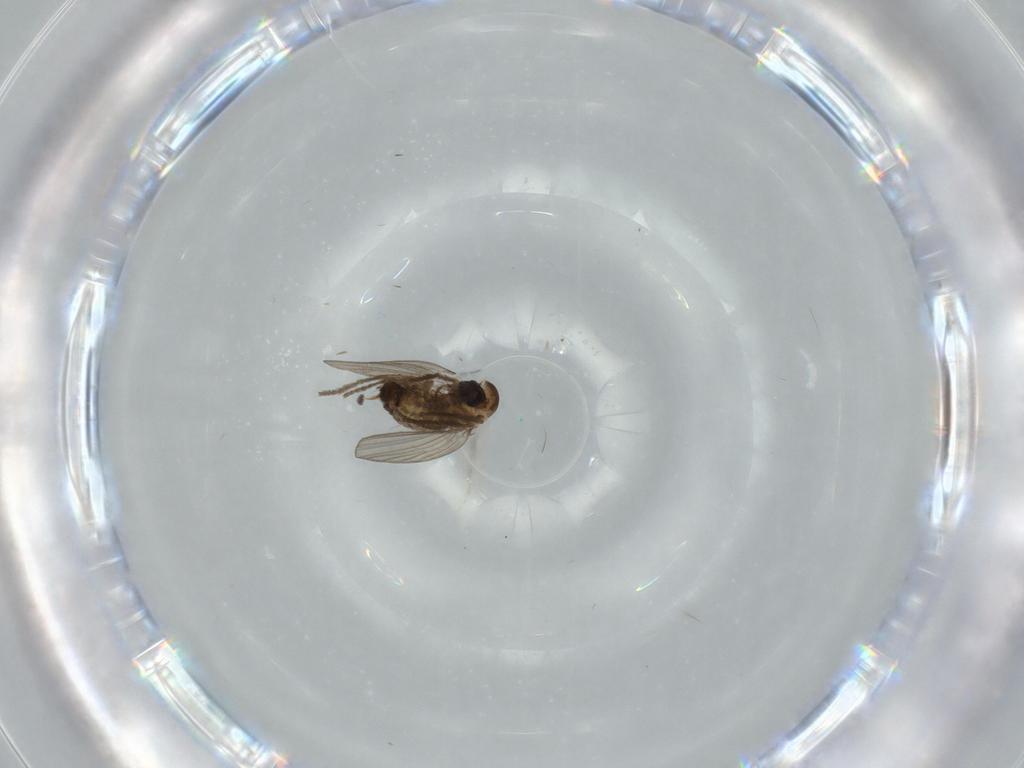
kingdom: Animalia
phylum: Arthropoda
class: Insecta
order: Diptera
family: Psychodidae
